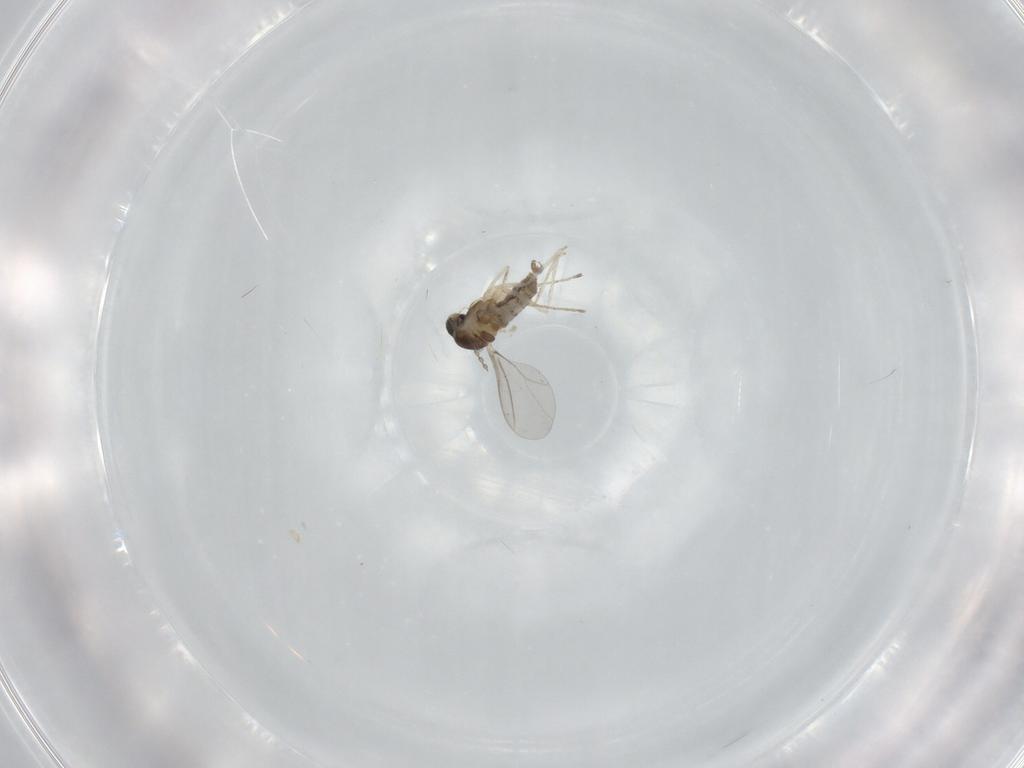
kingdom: Animalia
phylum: Arthropoda
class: Insecta
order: Diptera
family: Cecidomyiidae
